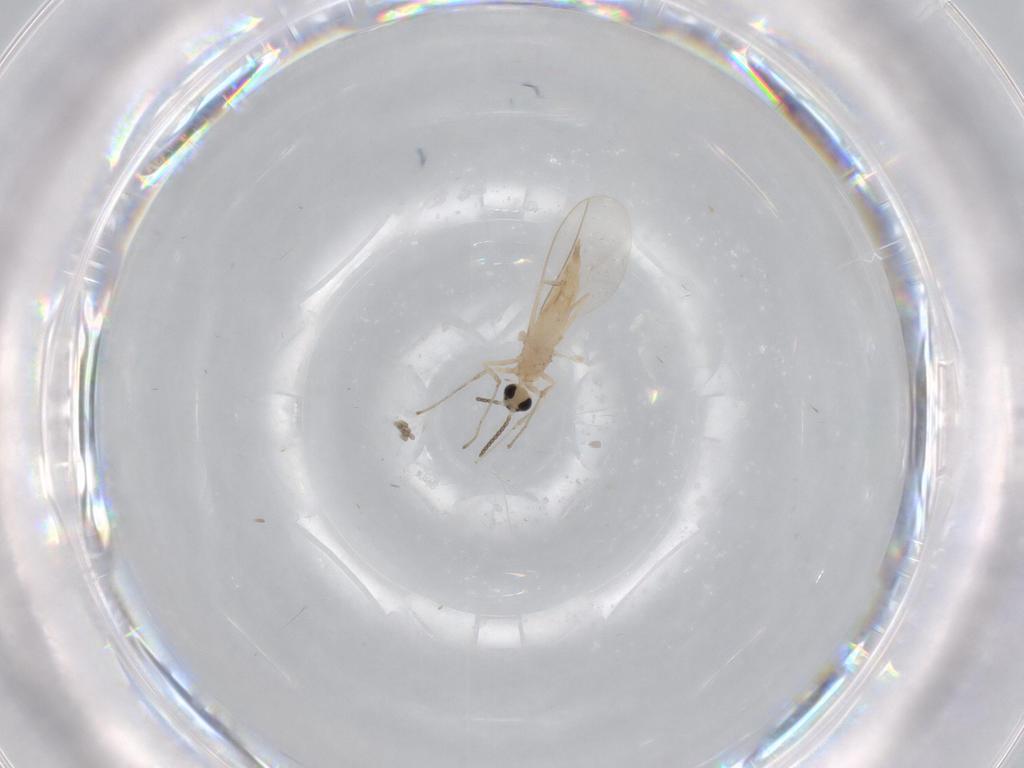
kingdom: Animalia
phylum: Arthropoda
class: Insecta
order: Diptera
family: Cecidomyiidae
